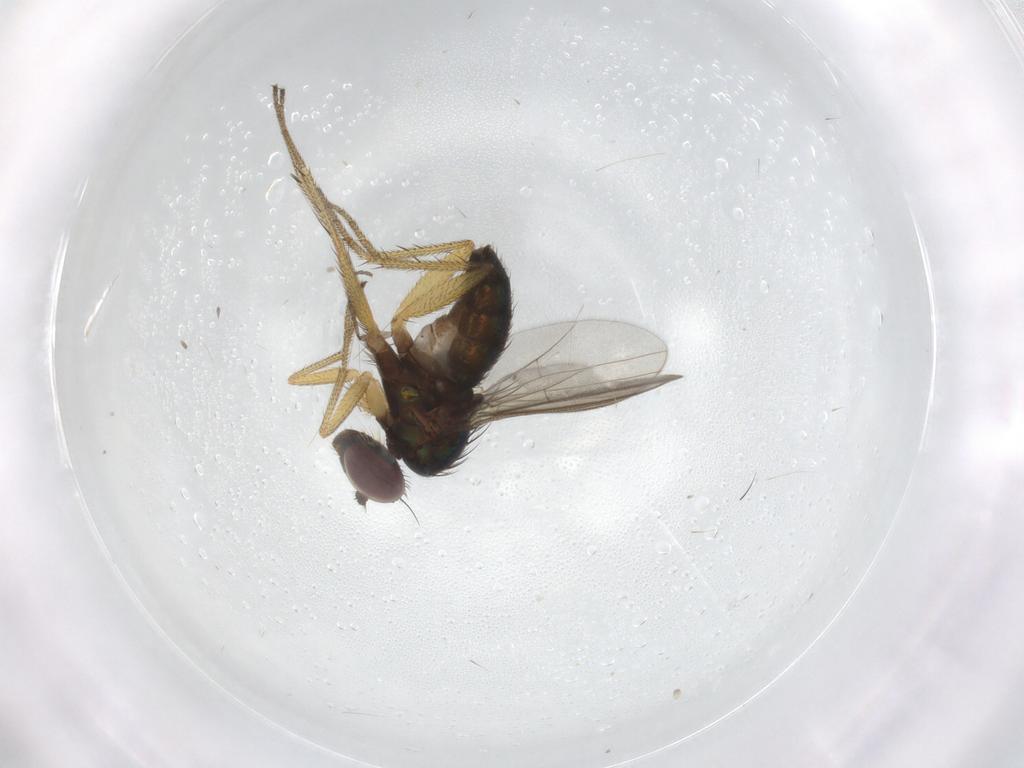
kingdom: Animalia
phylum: Arthropoda
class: Insecta
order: Diptera
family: Sciaridae
